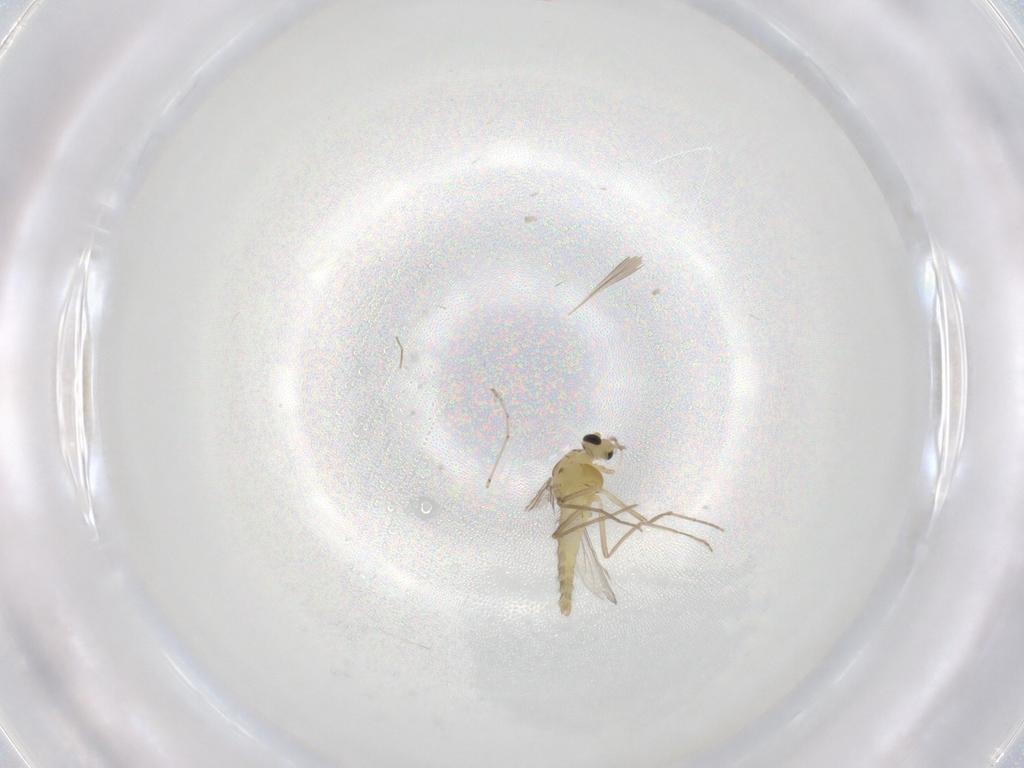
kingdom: Animalia
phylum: Arthropoda
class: Insecta
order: Diptera
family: Chironomidae
